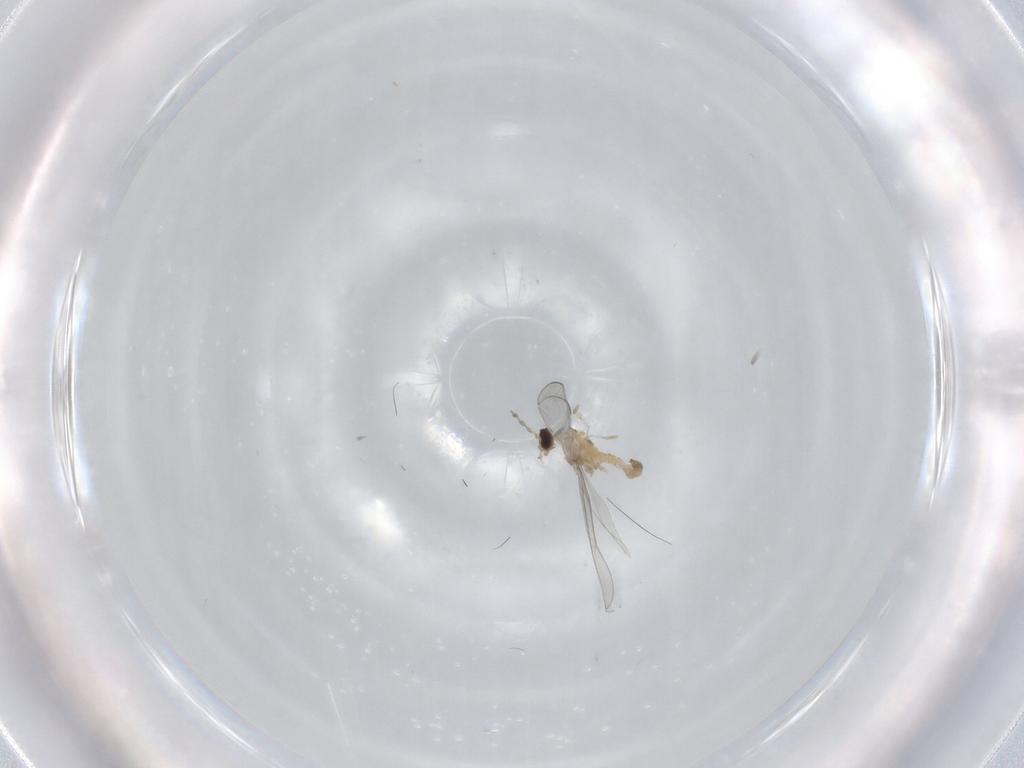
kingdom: Animalia
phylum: Arthropoda
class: Insecta
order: Diptera
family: Cecidomyiidae
